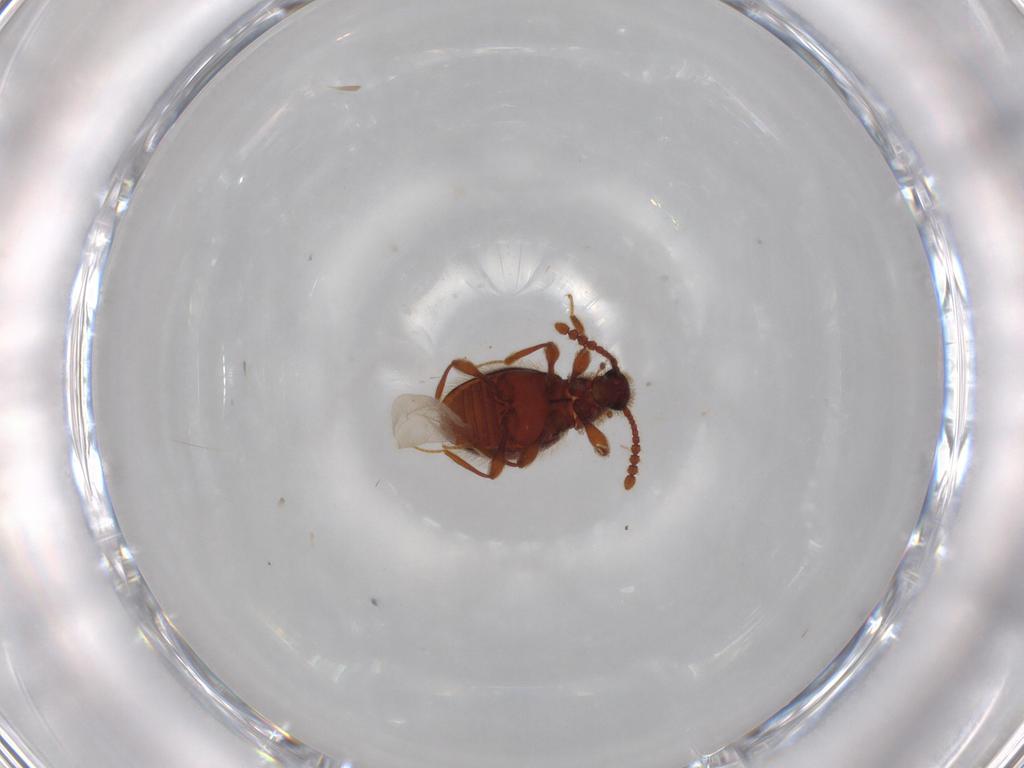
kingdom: Animalia
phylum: Arthropoda
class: Insecta
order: Coleoptera
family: Staphylinidae
